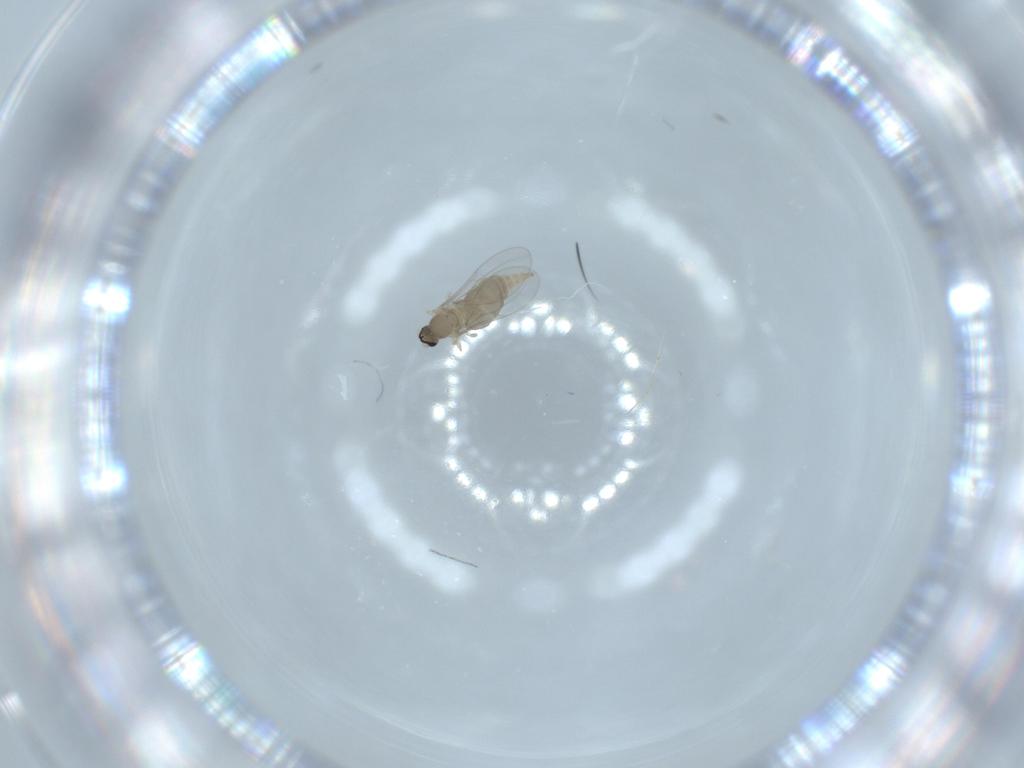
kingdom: Animalia
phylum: Arthropoda
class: Insecta
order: Diptera
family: Cecidomyiidae
